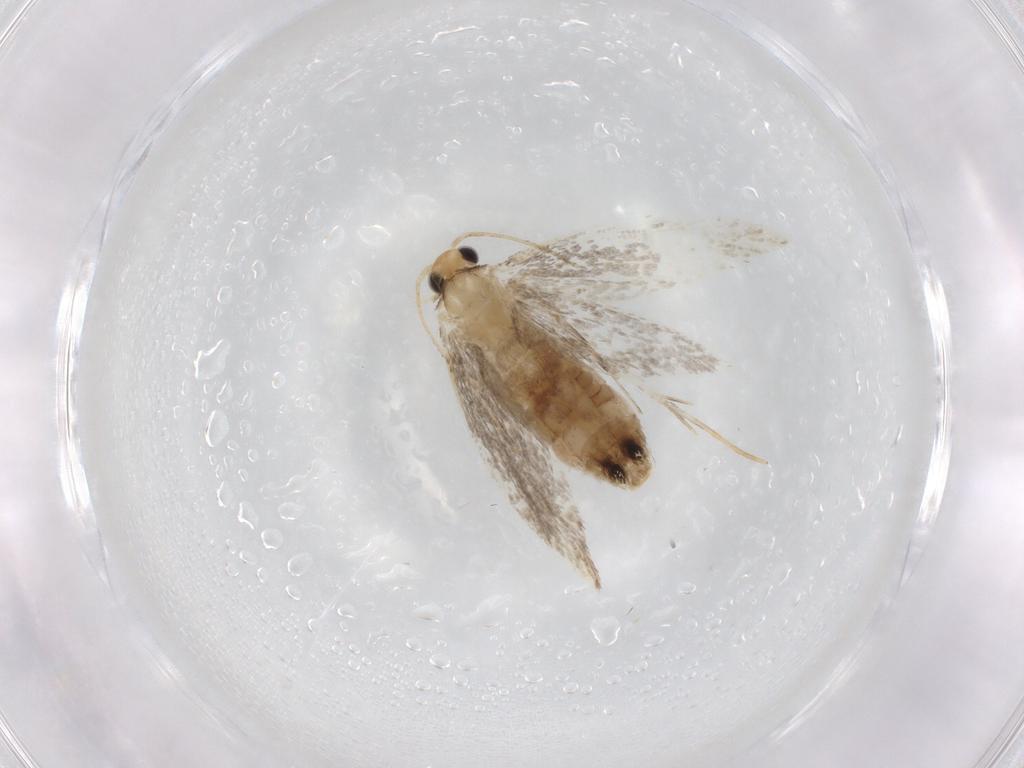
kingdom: Animalia
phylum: Arthropoda
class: Insecta
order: Lepidoptera
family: Dryadaulidae
